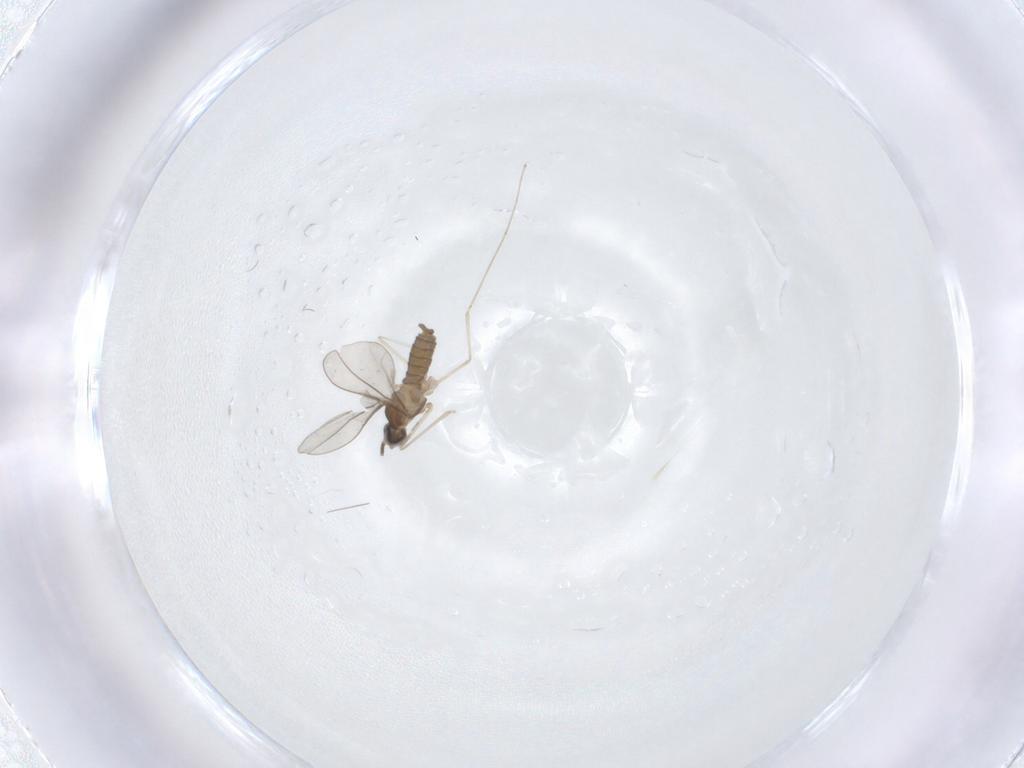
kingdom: Animalia
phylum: Arthropoda
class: Insecta
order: Diptera
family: Tabanidae
